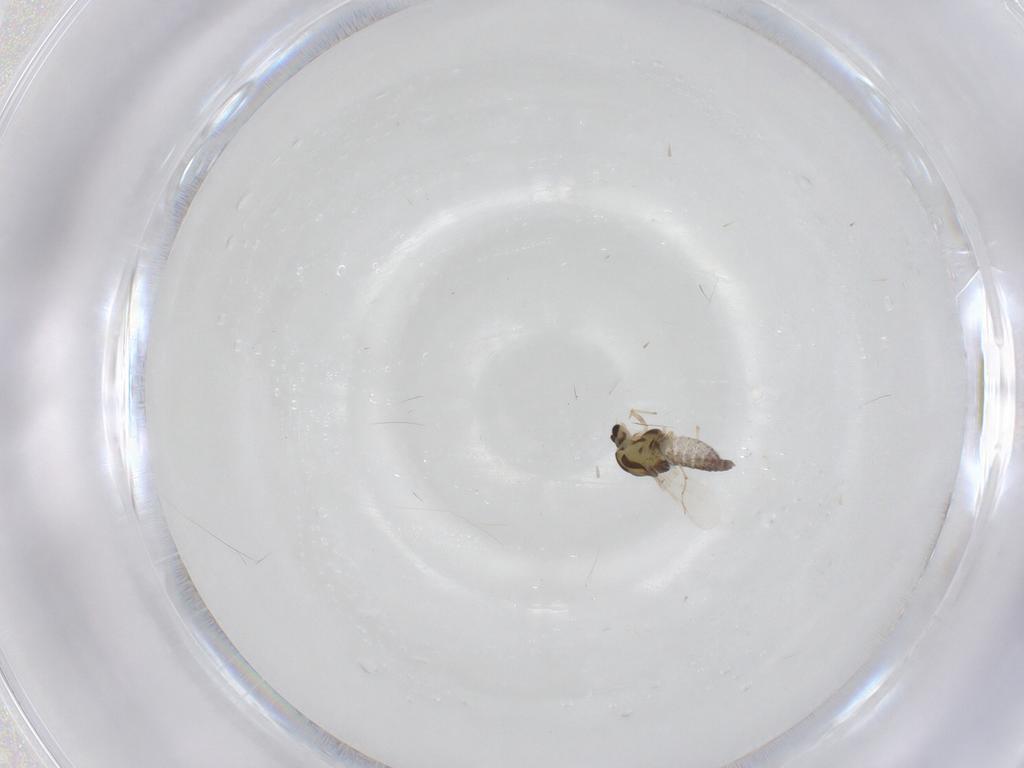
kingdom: Animalia
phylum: Arthropoda
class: Insecta
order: Diptera
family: Chironomidae
